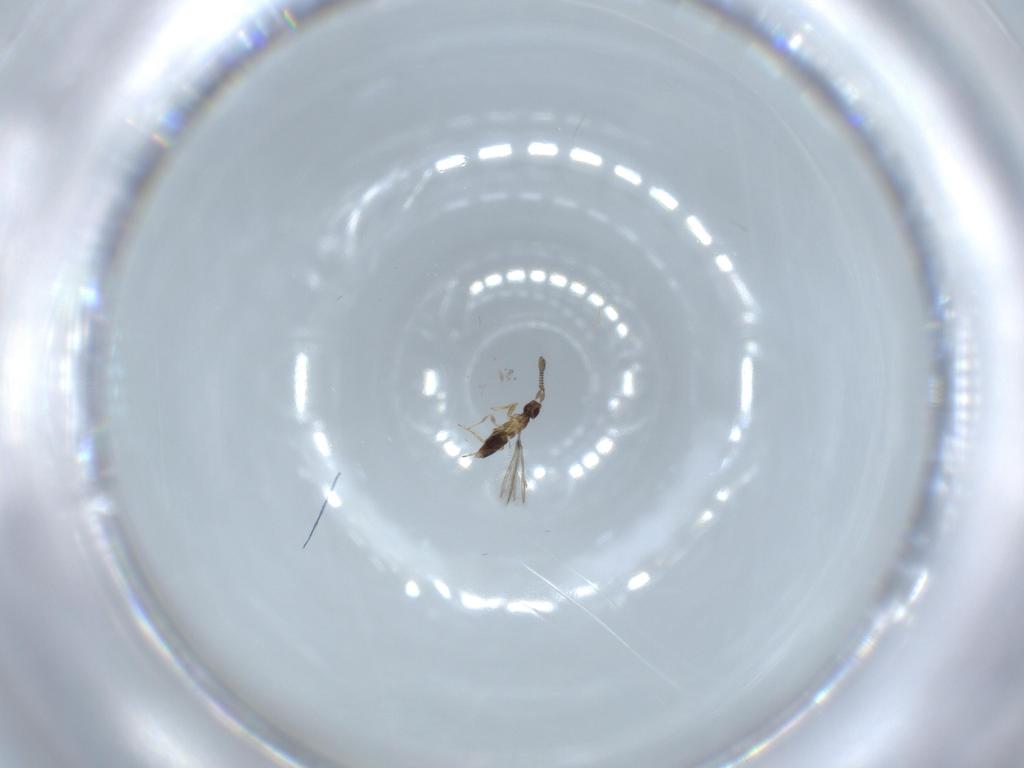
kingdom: Animalia
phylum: Arthropoda
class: Insecta
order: Hymenoptera
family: Mymaridae
